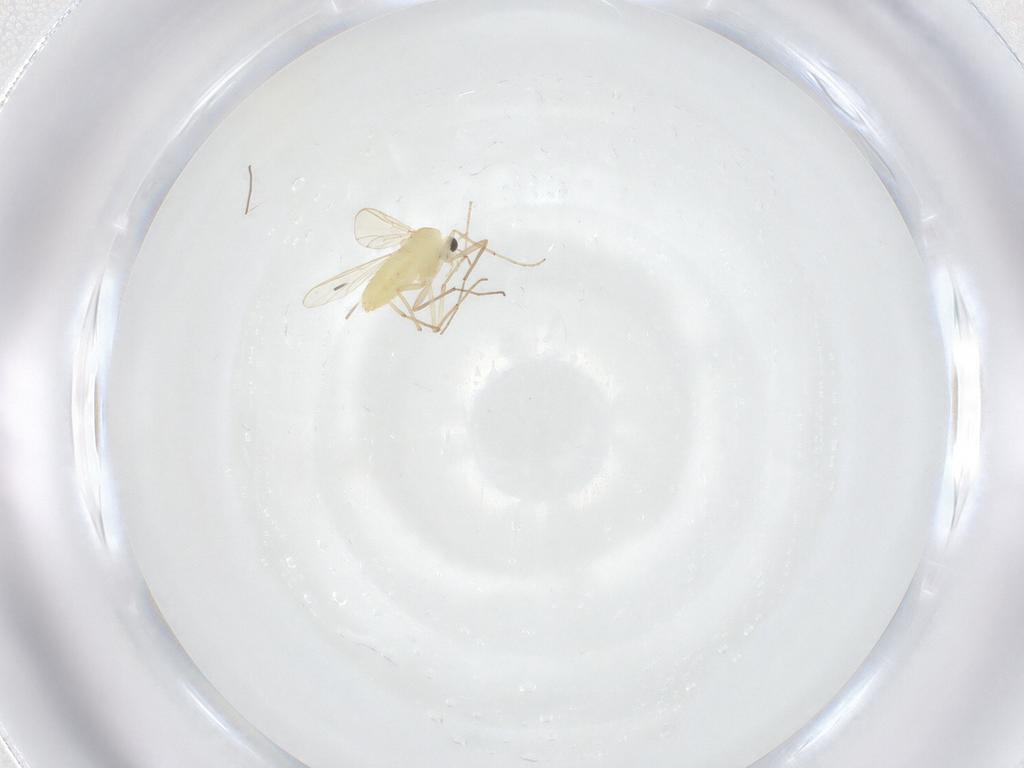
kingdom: Animalia
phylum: Arthropoda
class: Insecta
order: Diptera
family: Chironomidae
